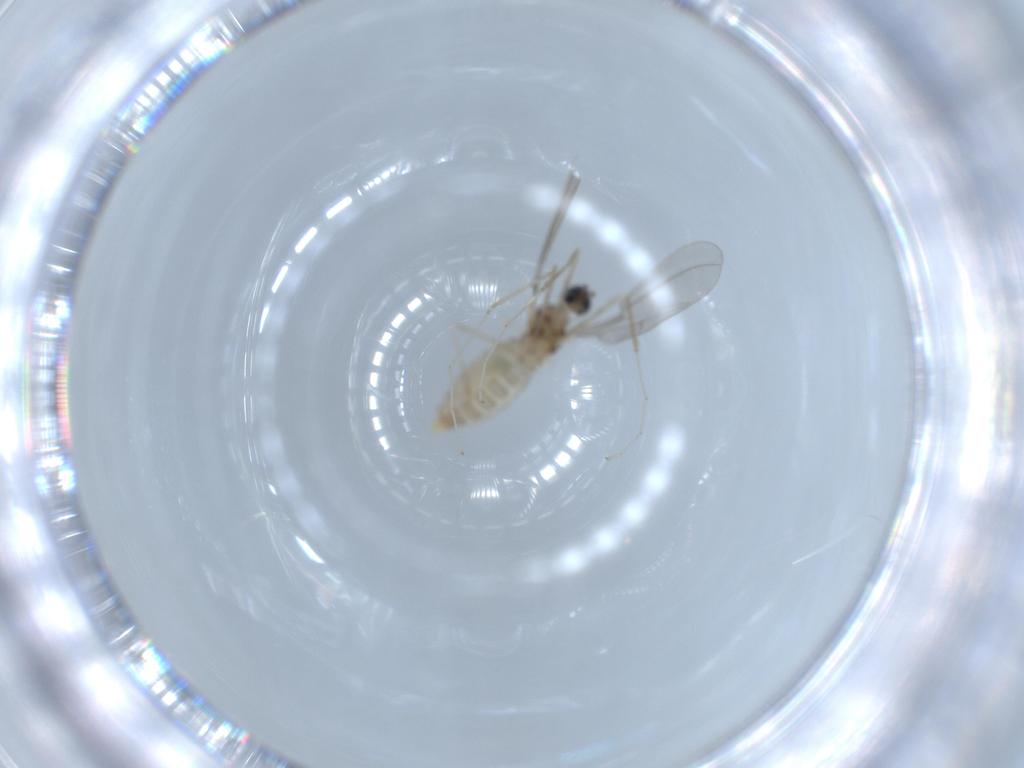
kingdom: Animalia
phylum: Arthropoda
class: Insecta
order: Diptera
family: Cecidomyiidae
